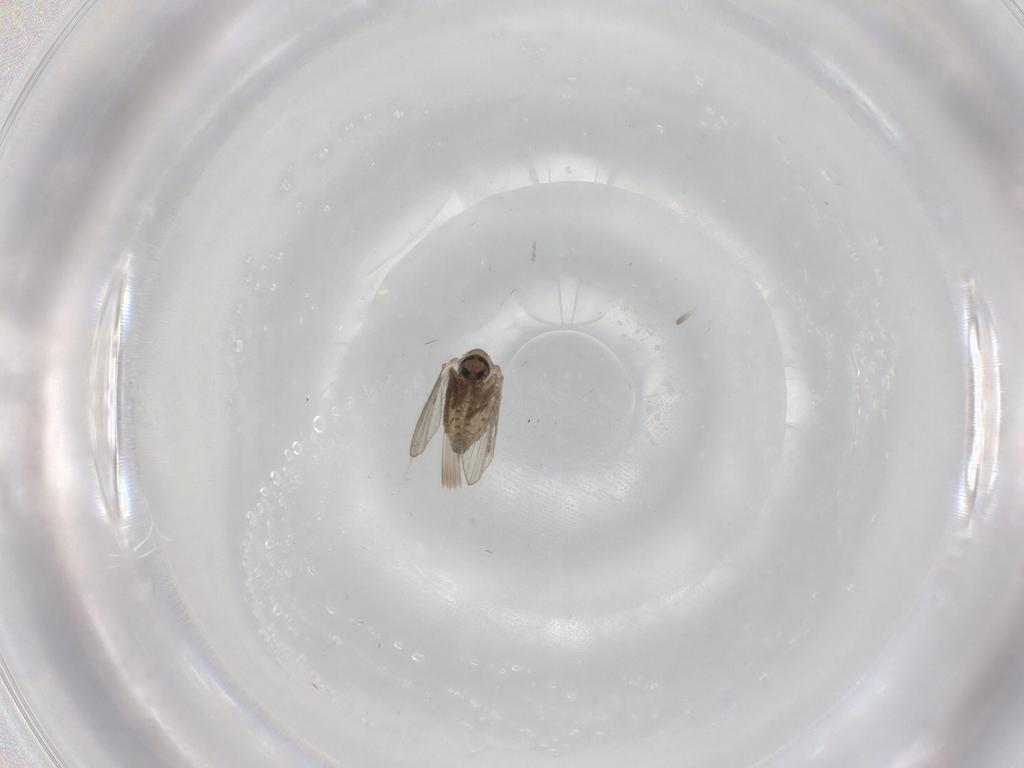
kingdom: Animalia
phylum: Arthropoda
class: Insecta
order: Diptera
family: Psychodidae
